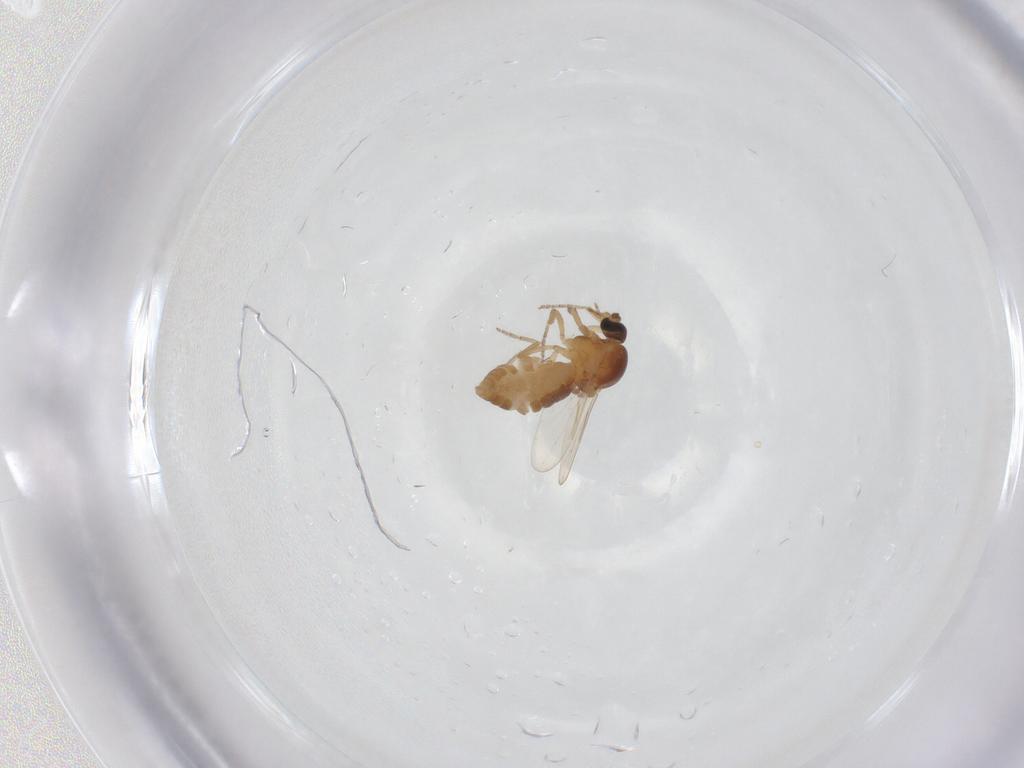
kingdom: Animalia
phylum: Arthropoda
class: Insecta
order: Diptera
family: Ceratopogonidae
